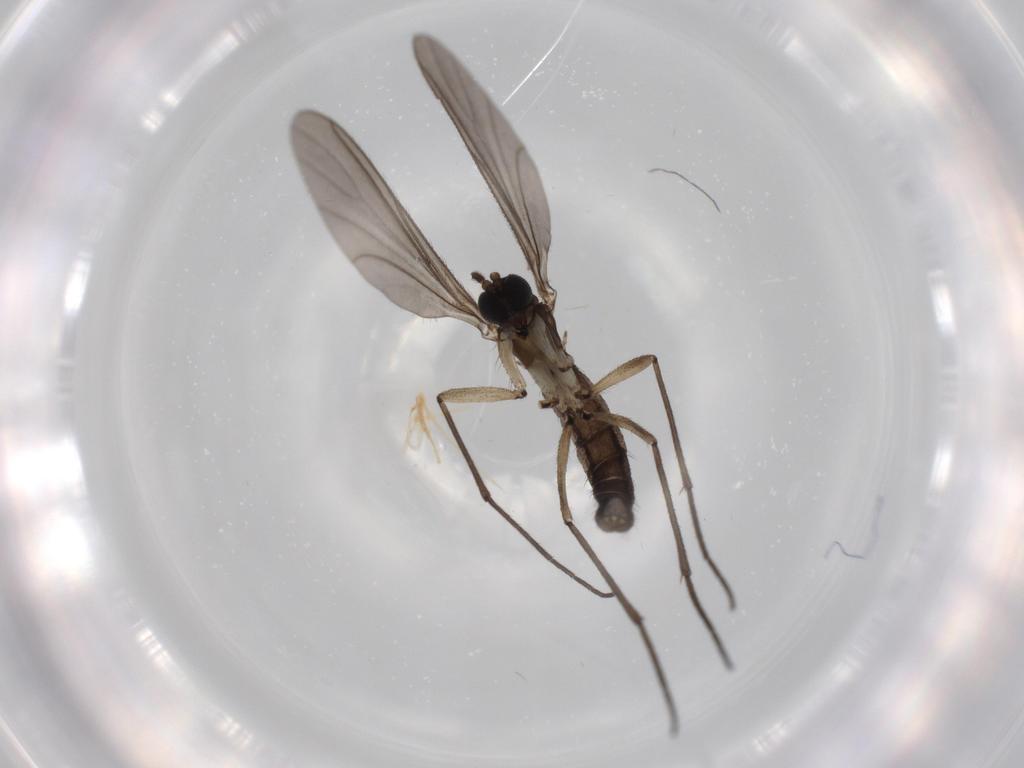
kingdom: Animalia
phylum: Arthropoda
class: Insecta
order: Diptera
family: Sciaridae
